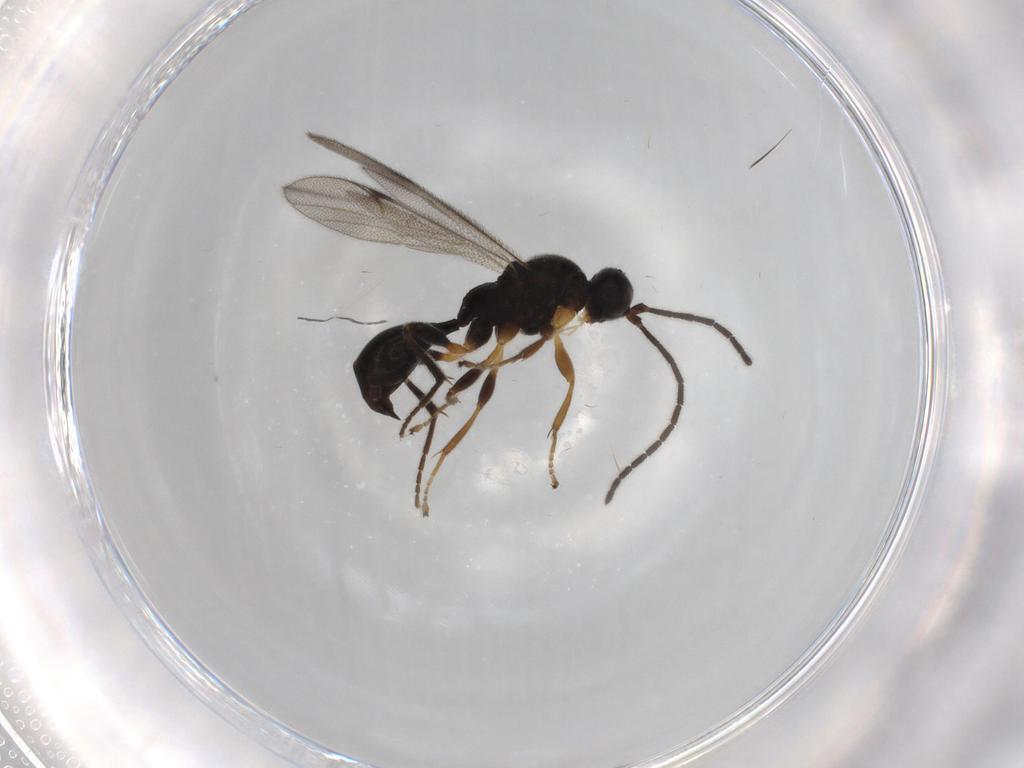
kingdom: Animalia
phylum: Arthropoda
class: Insecta
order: Hymenoptera
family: Proctotrupidae
